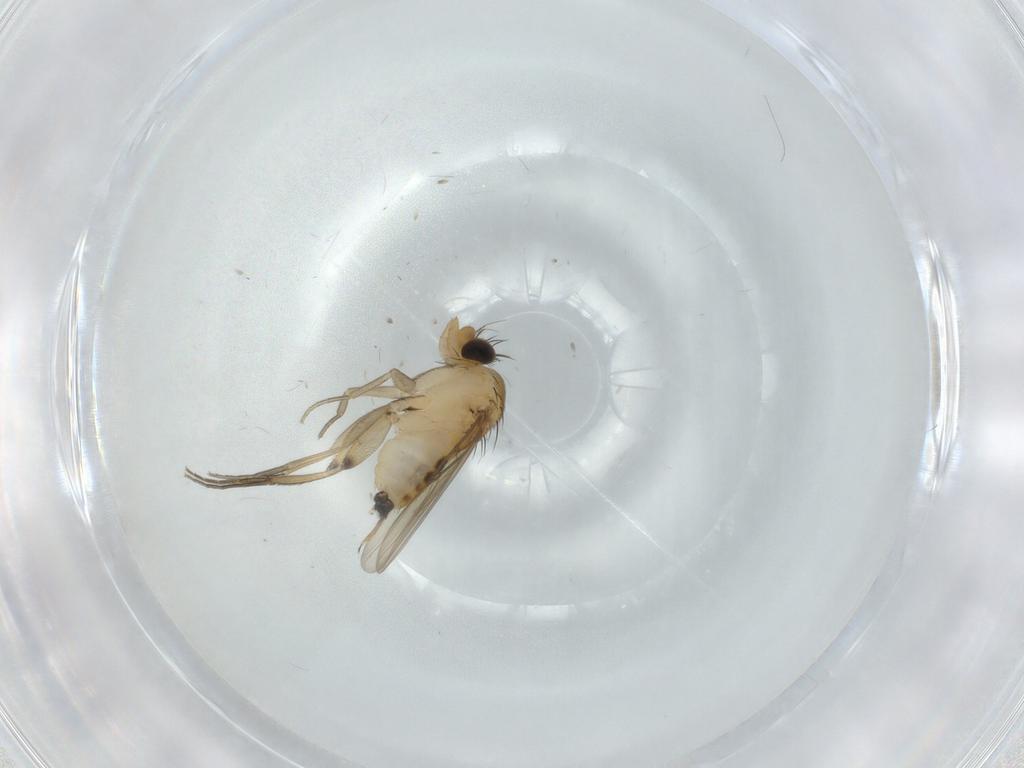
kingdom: Animalia
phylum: Arthropoda
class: Insecta
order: Diptera
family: Phoridae
